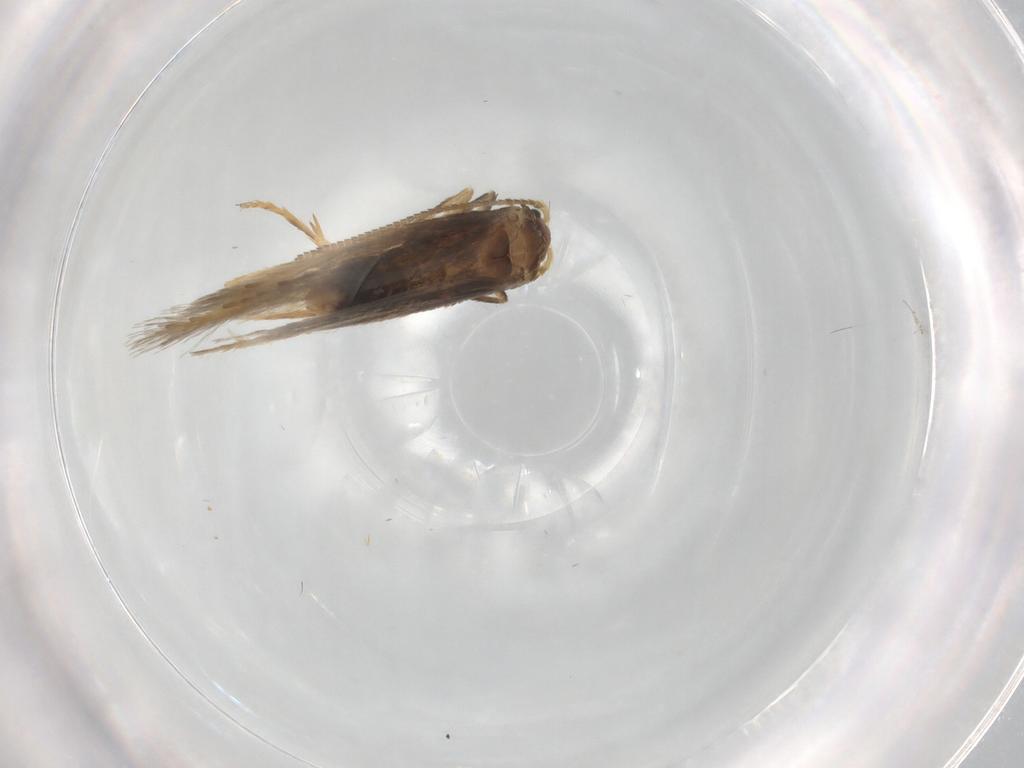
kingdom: Animalia
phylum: Arthropoda
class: Insecta
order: Lepidoptera
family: Nepticulidae
